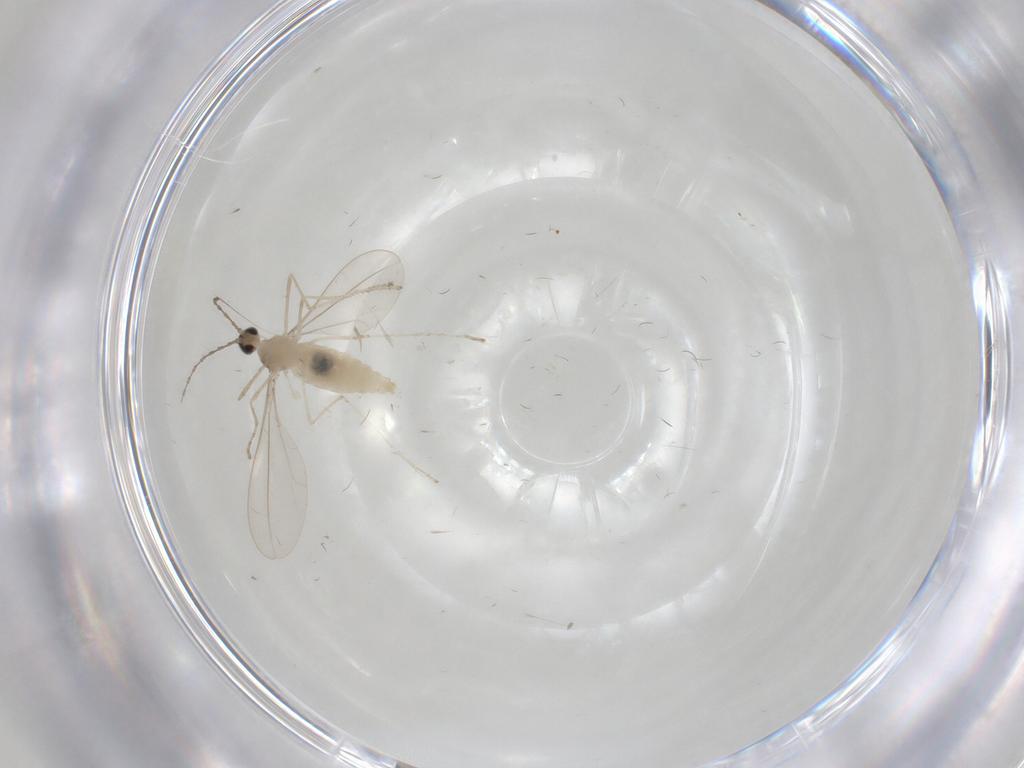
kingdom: Animalia
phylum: Arthropoda
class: Insecta
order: Diptera
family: Cecidomyiidae
